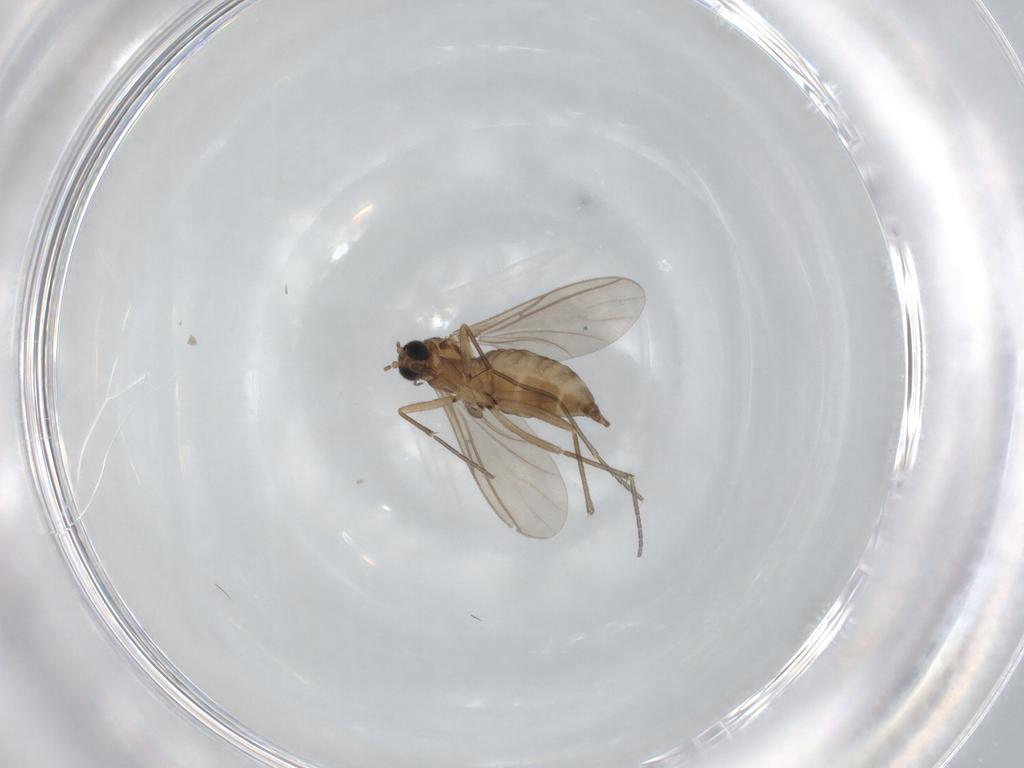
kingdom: Animalia
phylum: Arthropoda
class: Insecta
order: Diptera
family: Sciaridae
